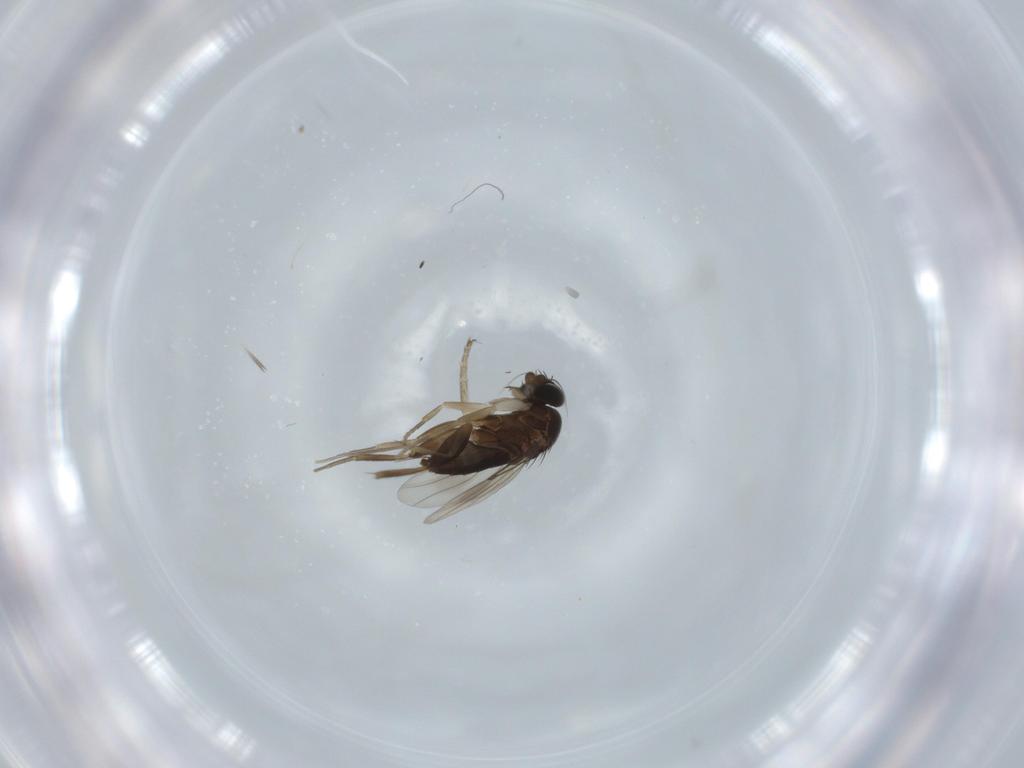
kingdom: Animalia
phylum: Arthropoda
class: Insecta
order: Diptera
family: Phoridae
